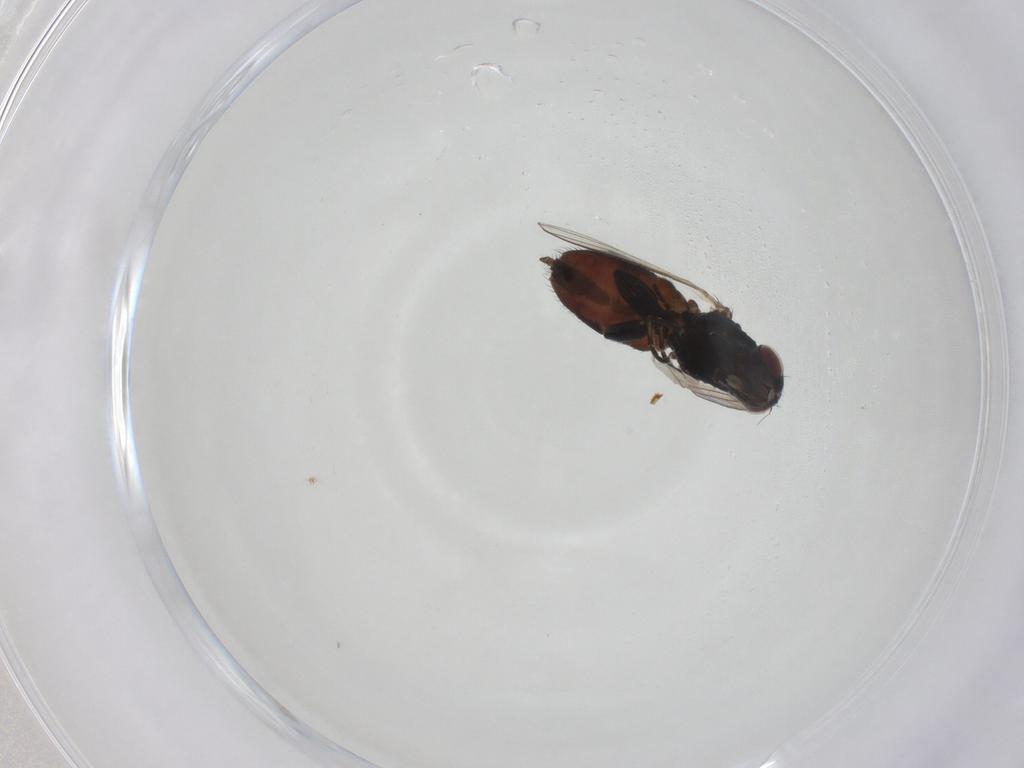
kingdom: Animalia
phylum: Arthropoda
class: Insecta
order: Diptera
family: Milichiidae
